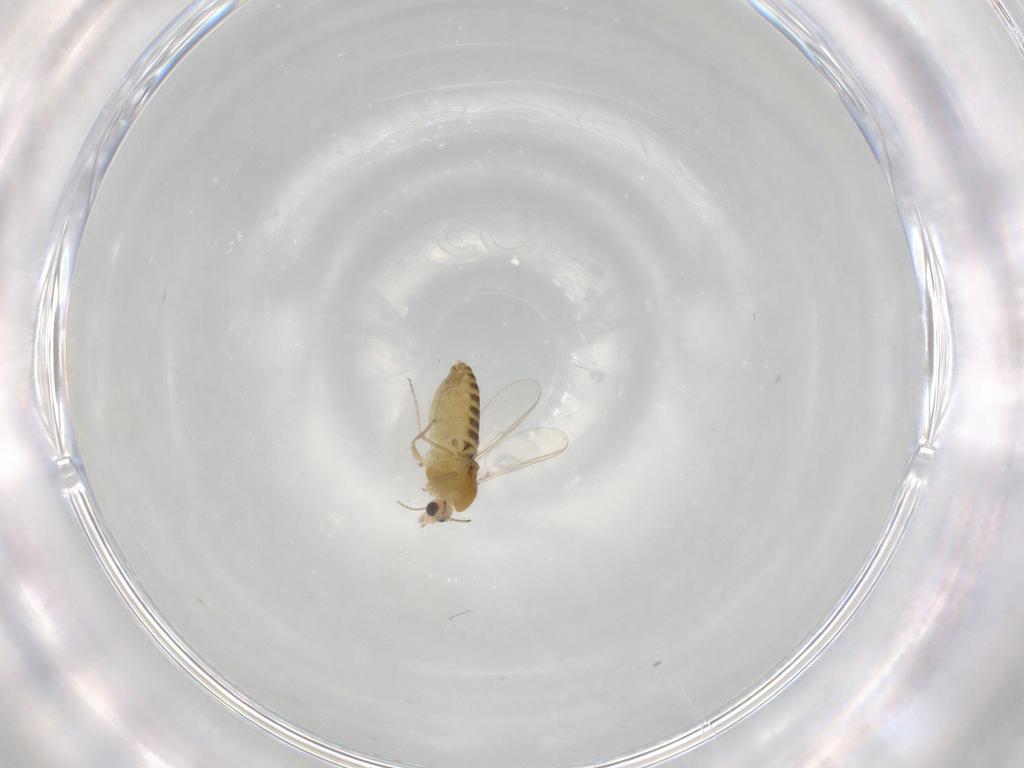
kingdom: Animalia
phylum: Arthropoda
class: Insecta
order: Diptera
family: Chironomidae
